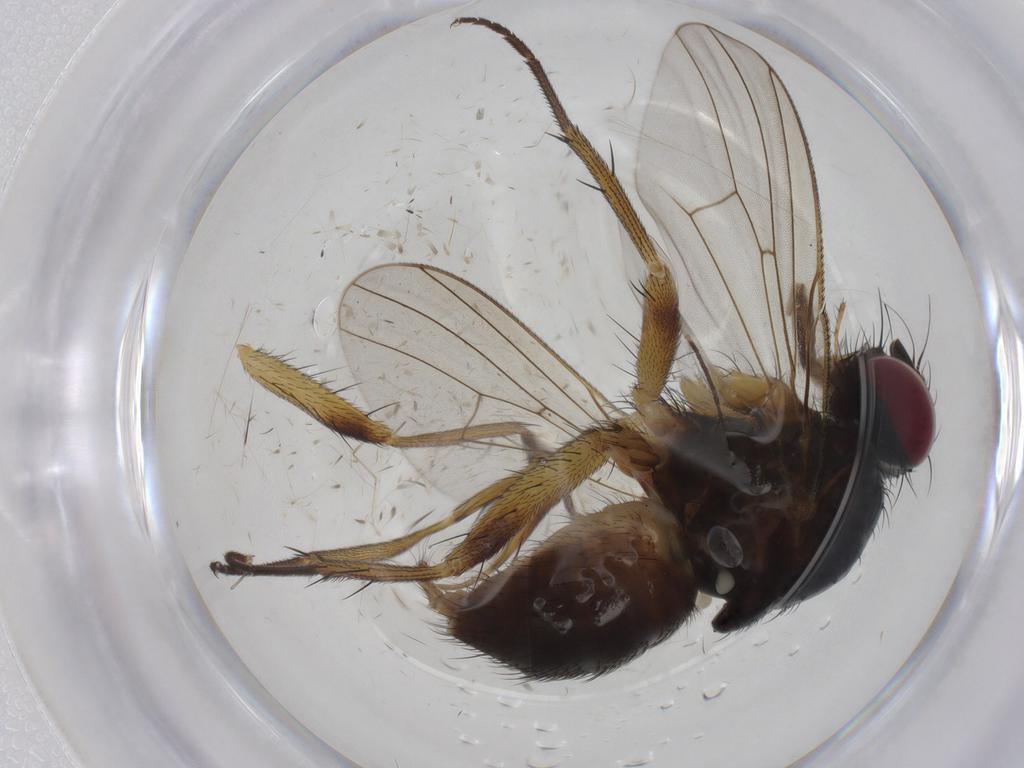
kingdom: Animalia
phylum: Arthropoda
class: Insecta
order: Diptera
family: Muscidae
